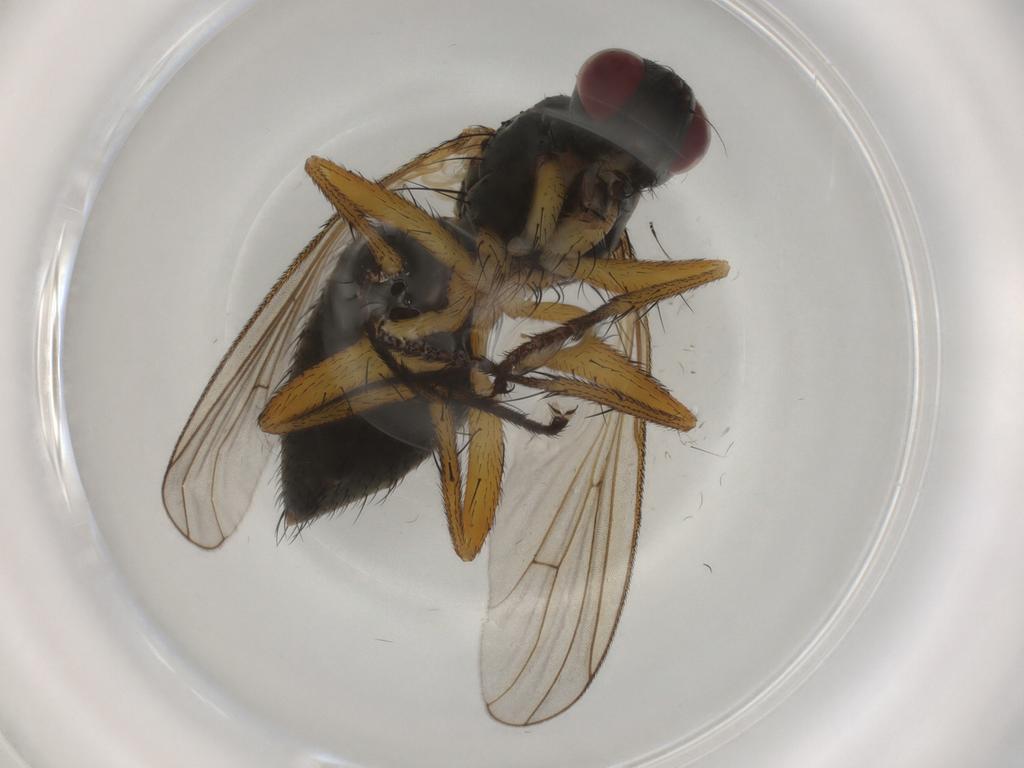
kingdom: Animalia
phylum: Arthropoda
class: Insecta
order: Diptera
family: Muscidae
